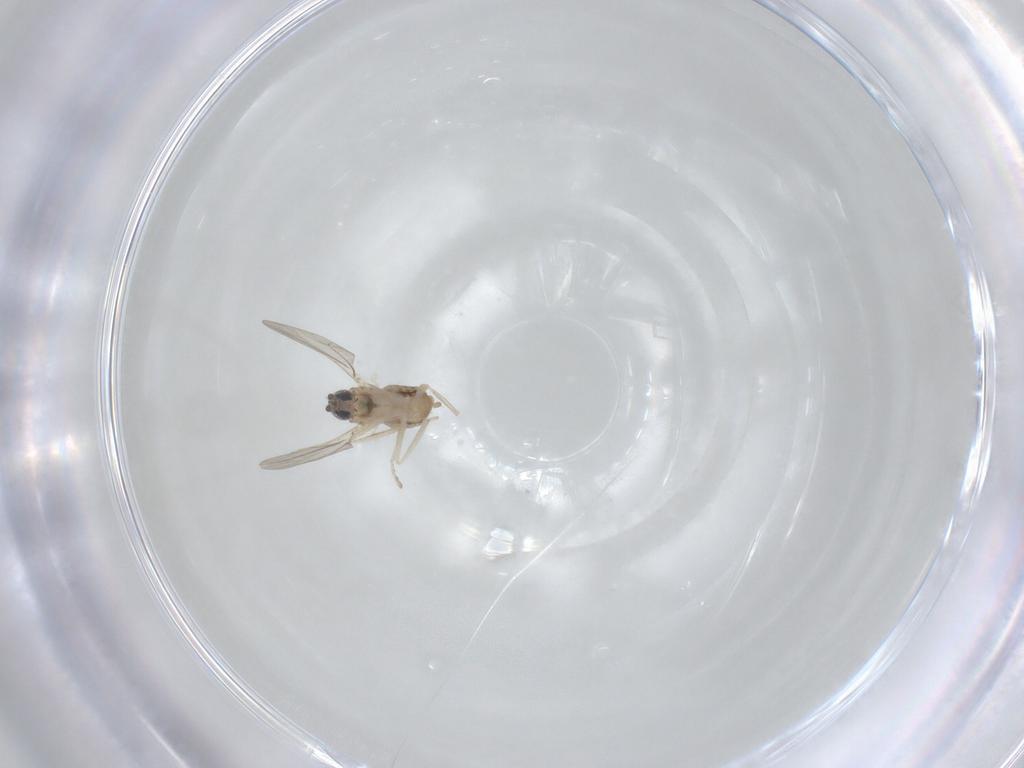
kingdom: Animalia
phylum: Arthropoda
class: Insecta
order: Diptera
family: Cecidomyiidae
